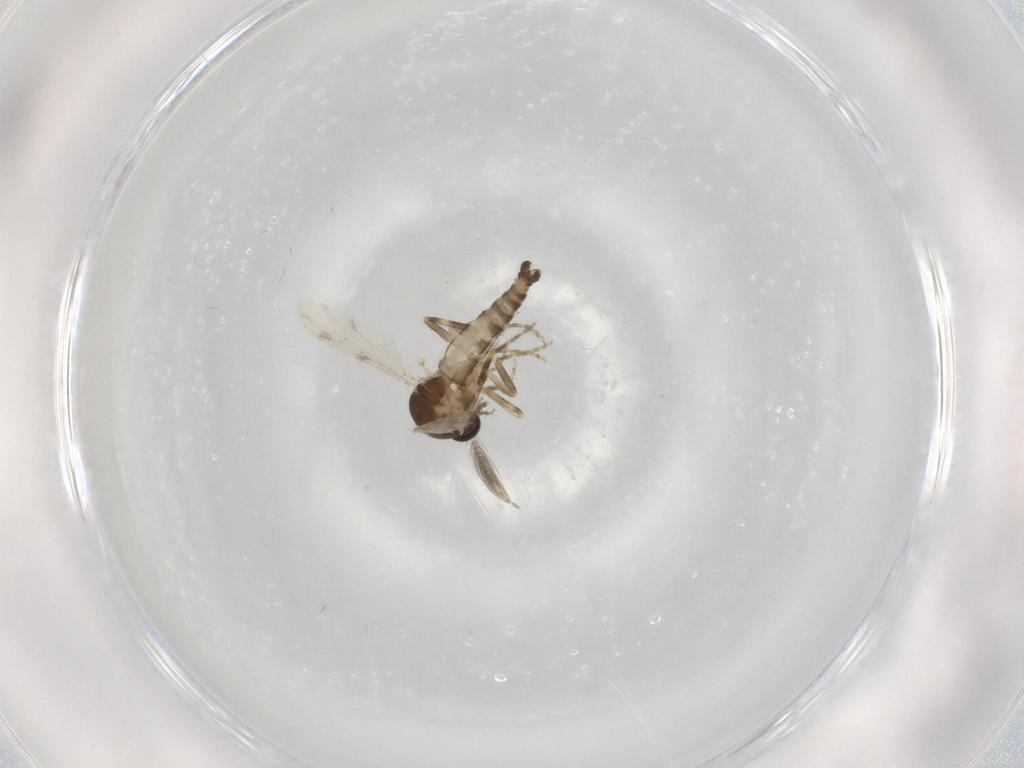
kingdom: Animalia
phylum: Arthropoda
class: Insecta
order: Diptera
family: Ceratopogonidae
